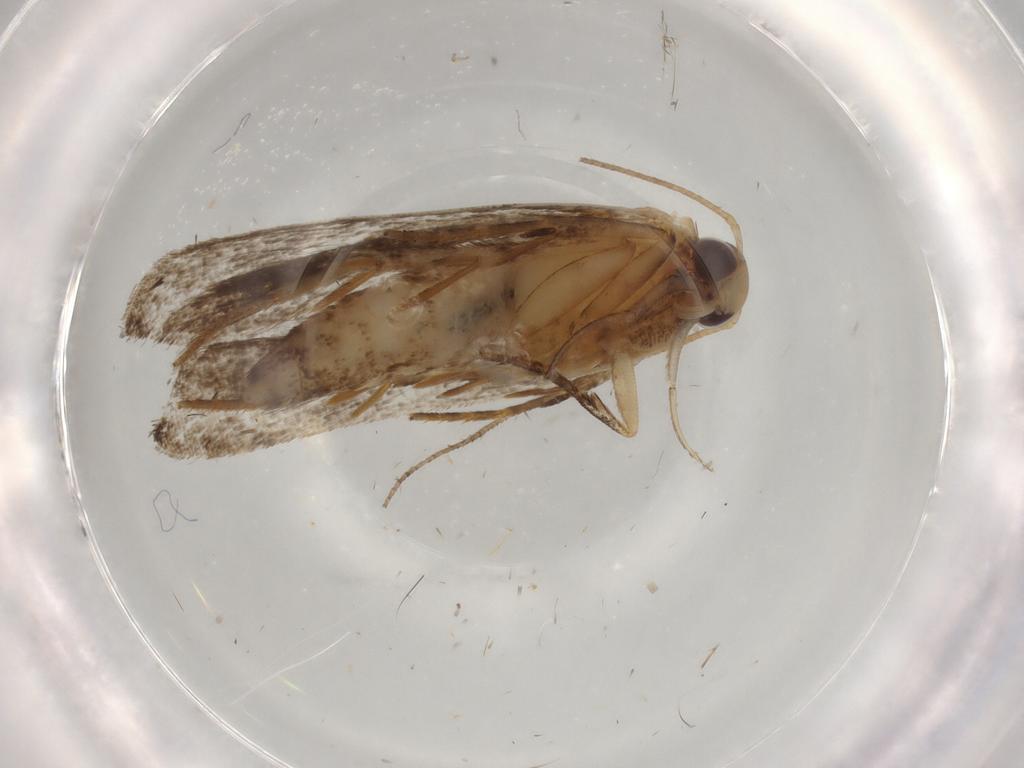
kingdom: Animalia
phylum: Arthropoda
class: Insecta
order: Lepidoptera
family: Gelechiidae
